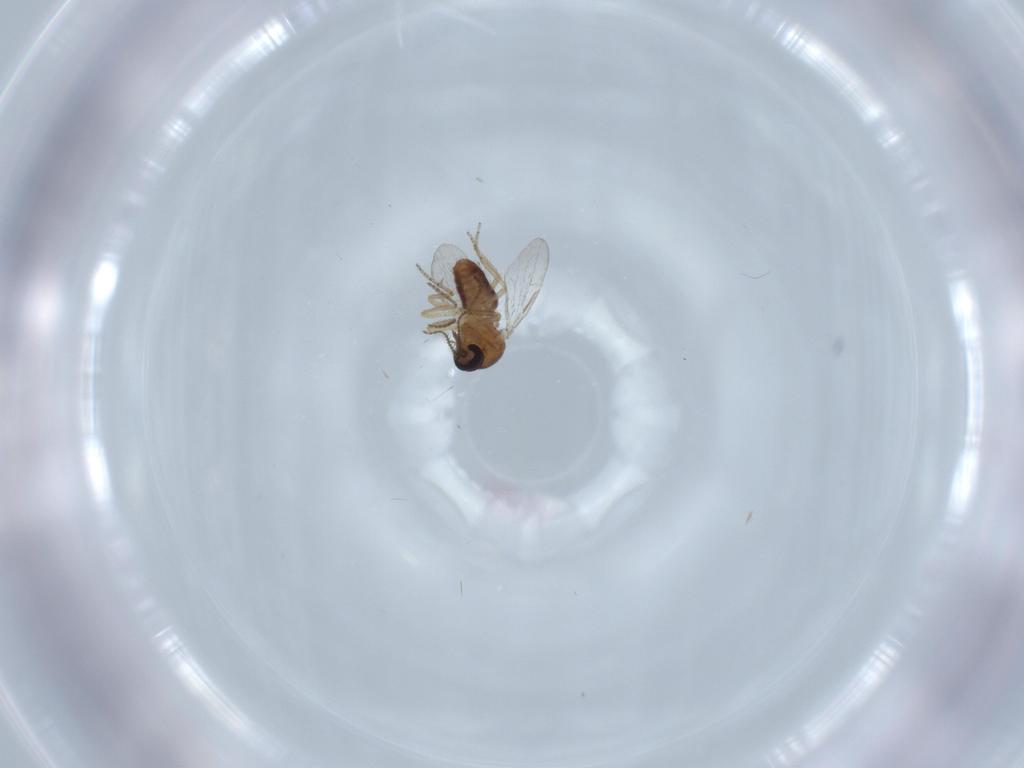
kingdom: Animalia
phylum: Arthropoda
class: Insecta
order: Diptera
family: Ceratopogonidae
